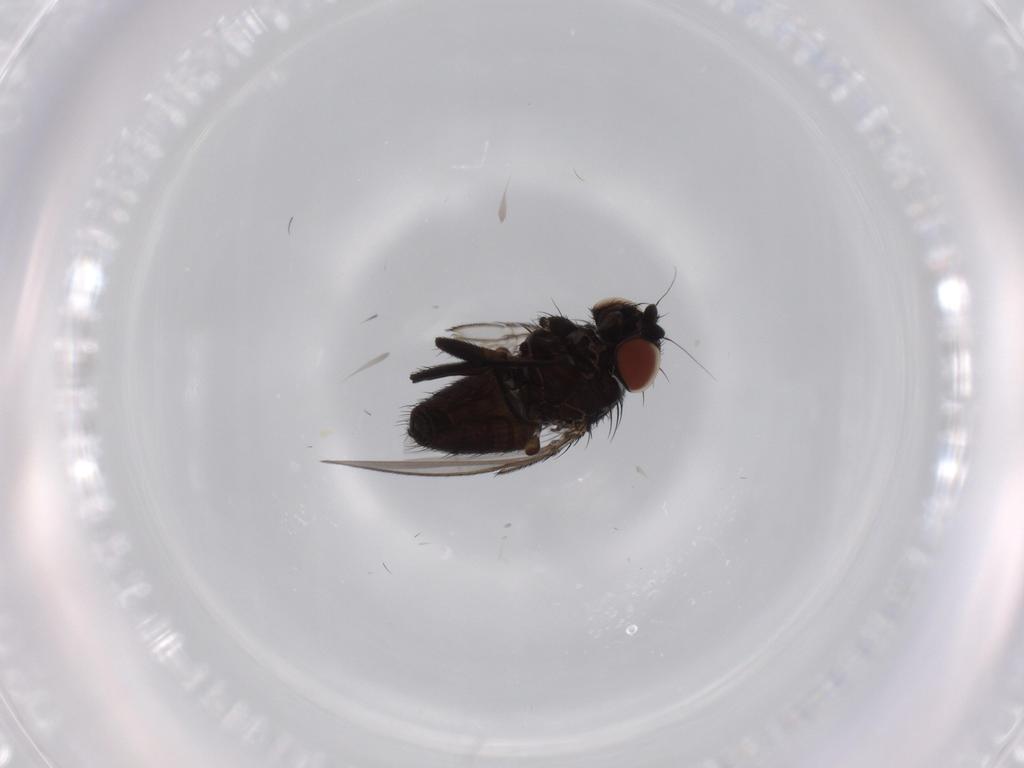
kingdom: Animalia
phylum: Arthropoda
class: Insecta
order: Diptera
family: Milichiidae
